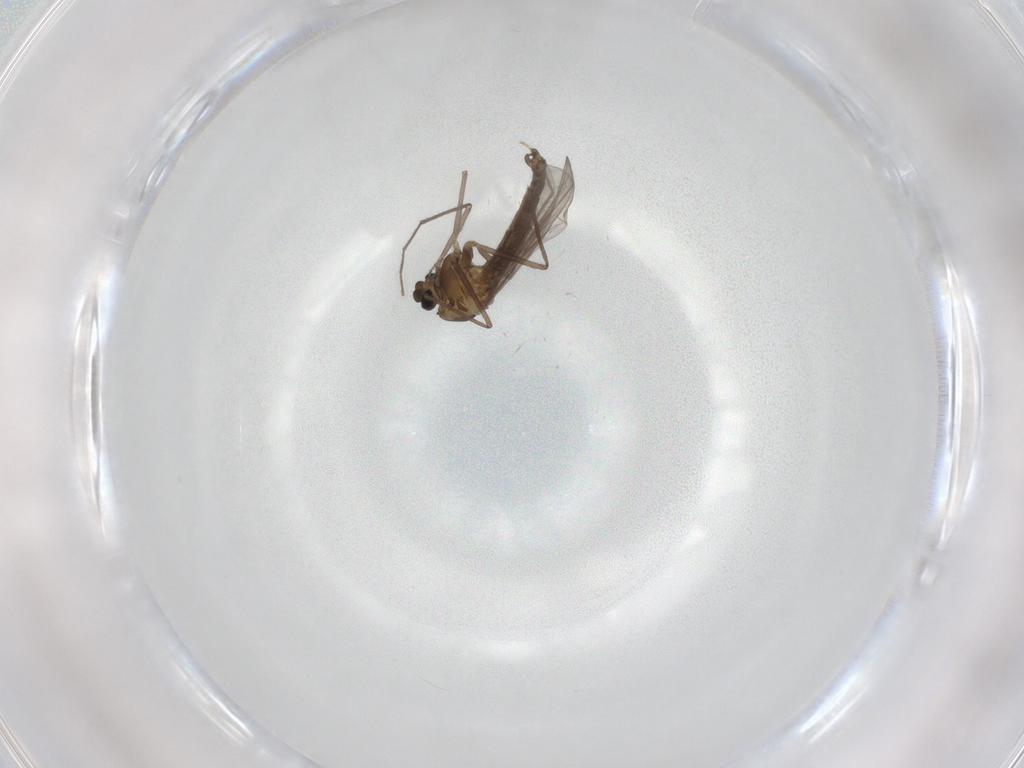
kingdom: Animalia
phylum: Arthropoda
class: Insecta
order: Diptera
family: Chironomidae
